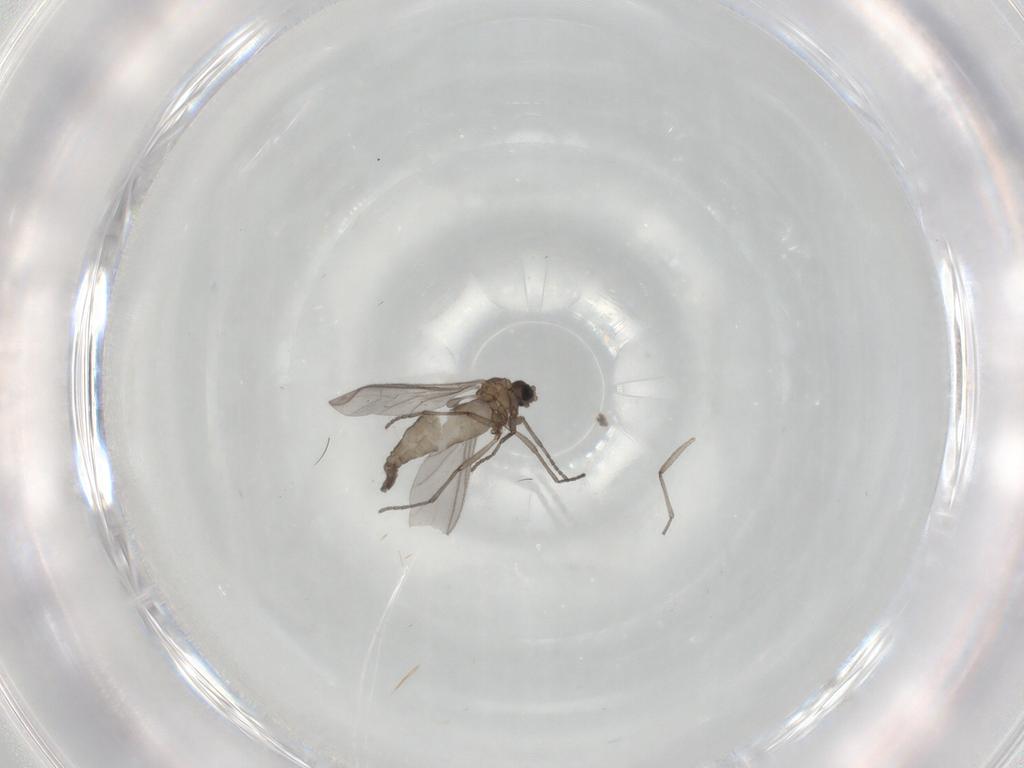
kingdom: Animalia
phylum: Arthropoda
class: Insecta
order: Diptera
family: Sciaridae
